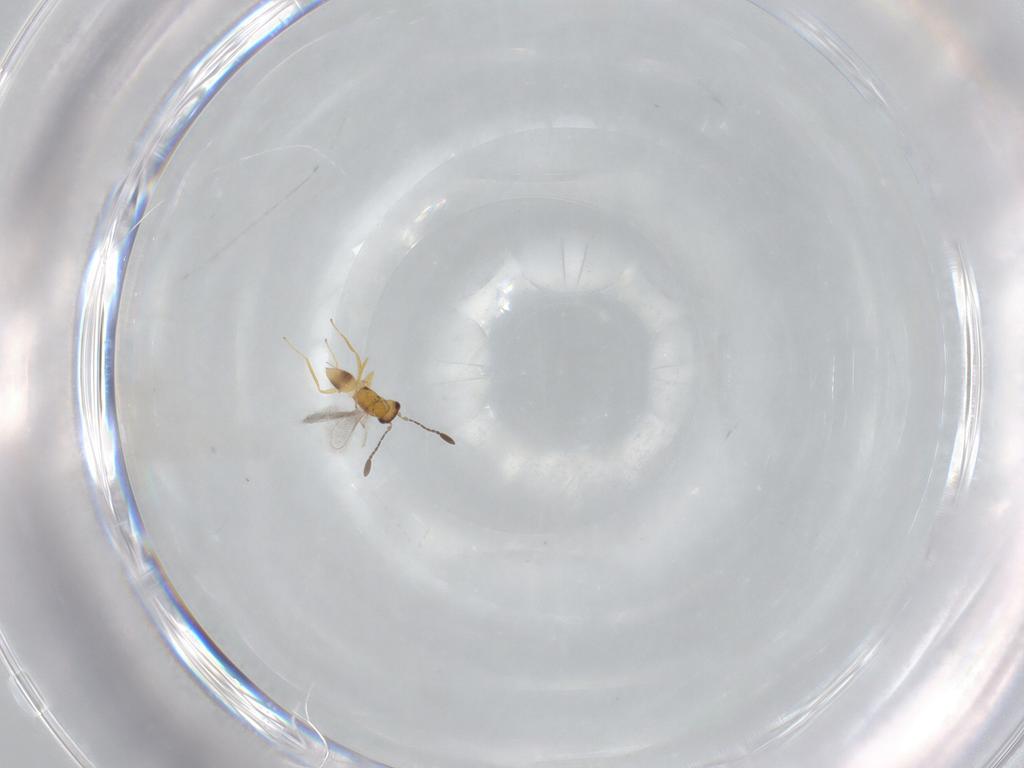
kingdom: Animalia
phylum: Arthropoda
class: Insecta
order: Hymenoptera
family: Mymaridae
